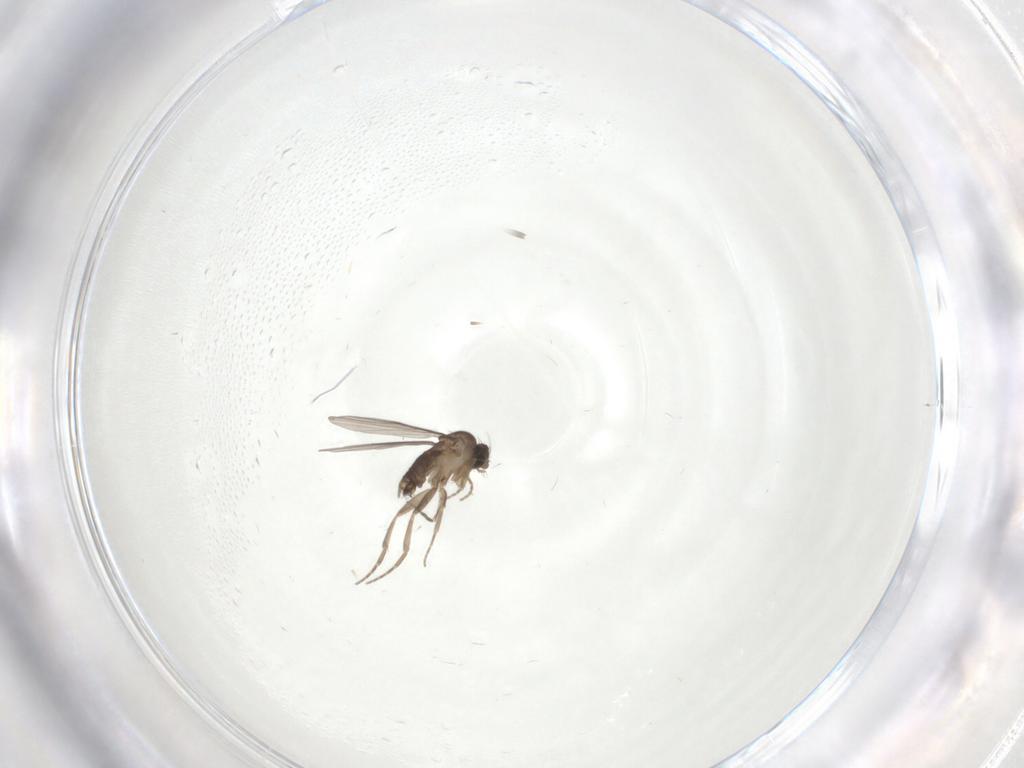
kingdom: Animalia
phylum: Arthropoda
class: Insecta
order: Diptera
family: Phoridae
